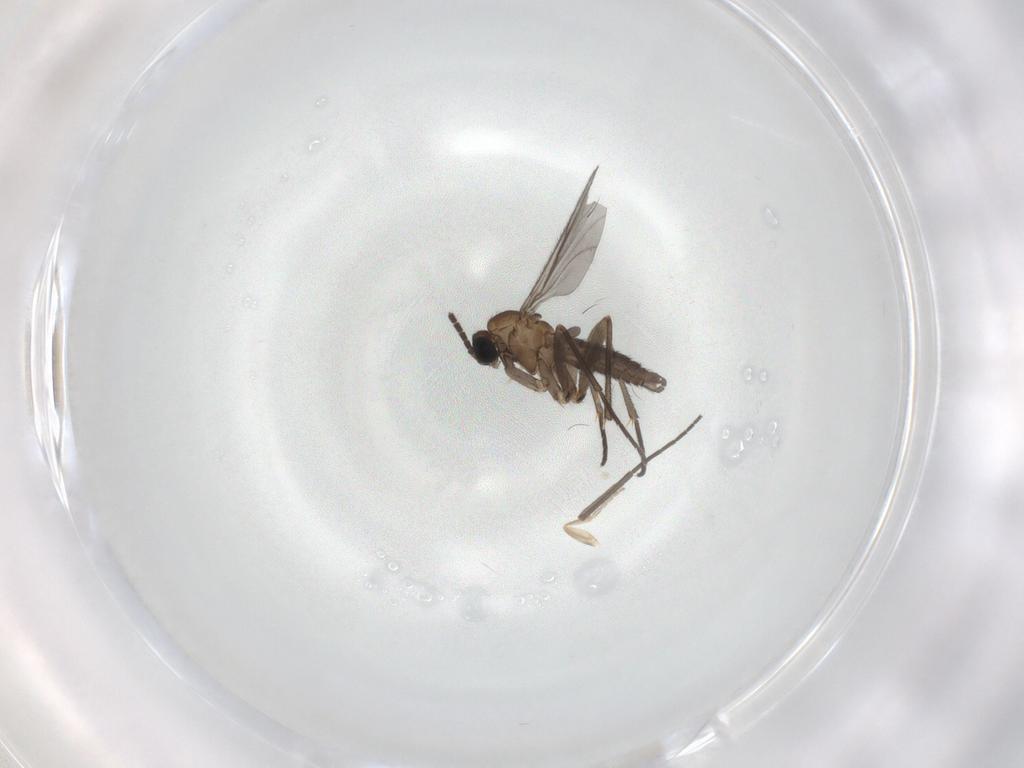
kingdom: Animalia
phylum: Arthropoda
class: Insecta
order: Diptera
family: Sciaridae
